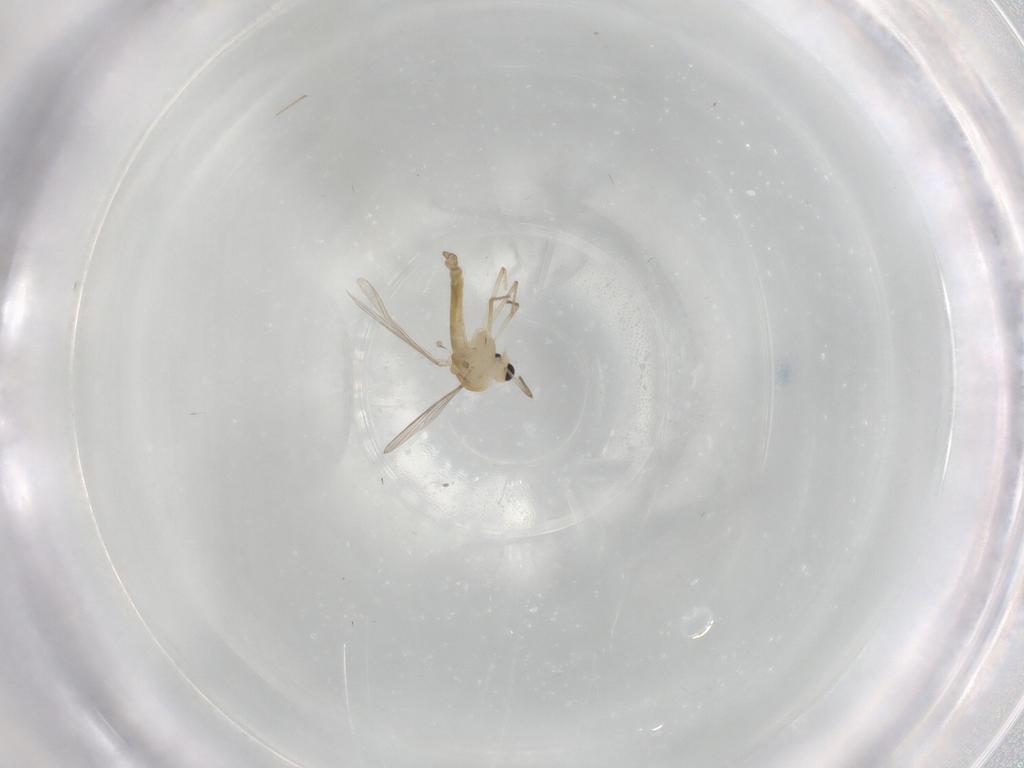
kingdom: Animalia
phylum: Arthropoda
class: Insecta
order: Diptera
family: Chironomidae
